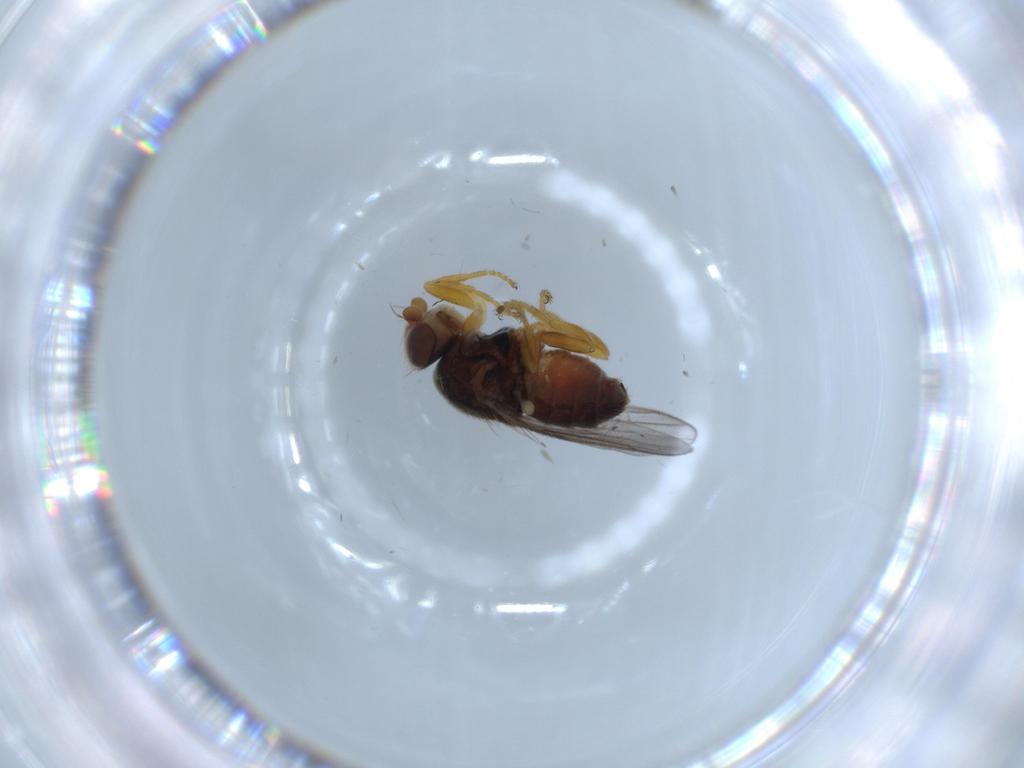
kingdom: Animalia
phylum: Arthropoda
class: Insecta
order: Diptera
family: Chloropidae
